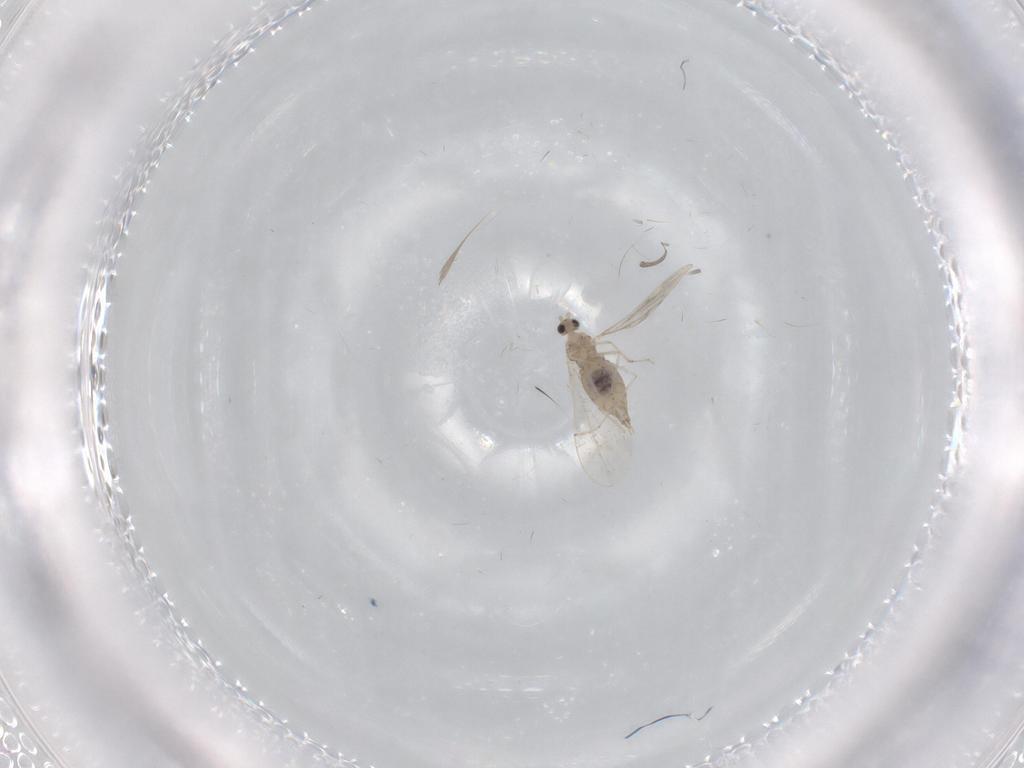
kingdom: Animalia
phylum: Arthropoda
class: Insecta
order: Diptera
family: Cecidomyiidae
